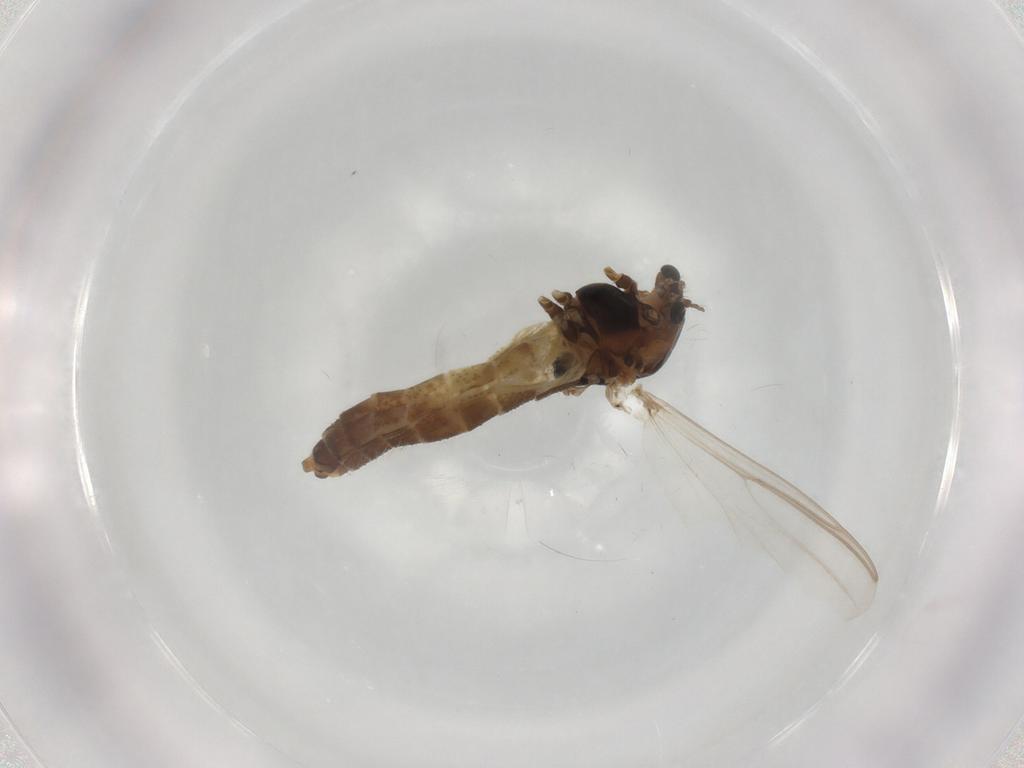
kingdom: Animalia
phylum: Arthropoda
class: Insecta
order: Diptera
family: Chironomidae
